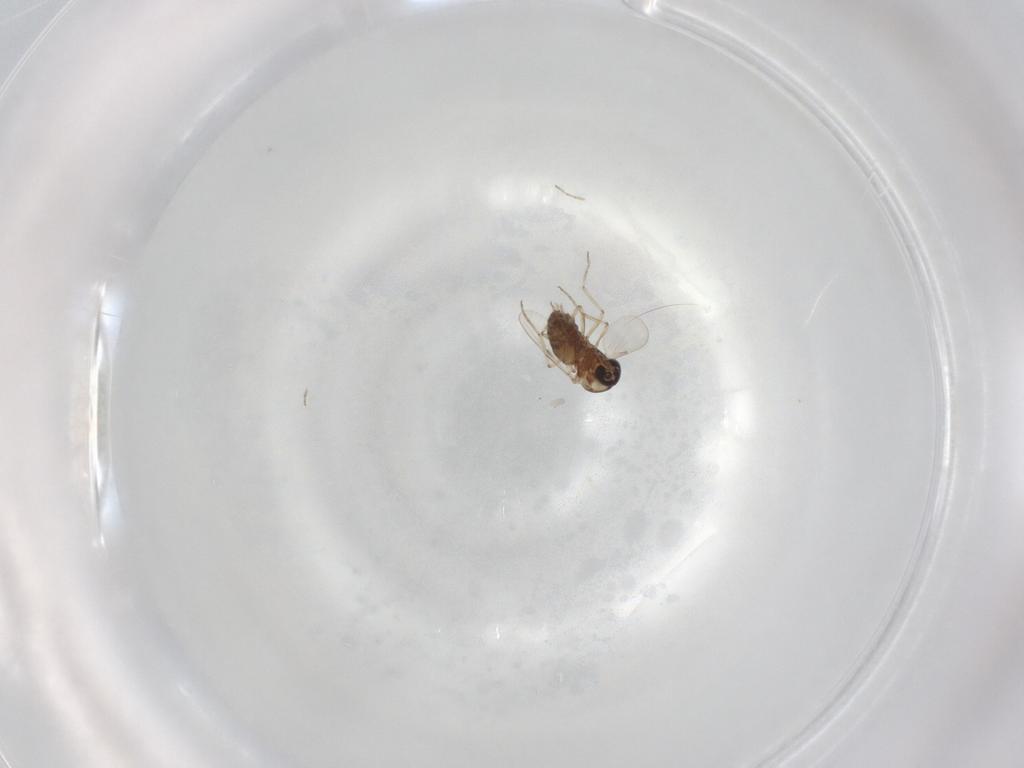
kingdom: Animalia
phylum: Arthropoda
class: Insecta
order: Diptera
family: Ceratopogonidae
